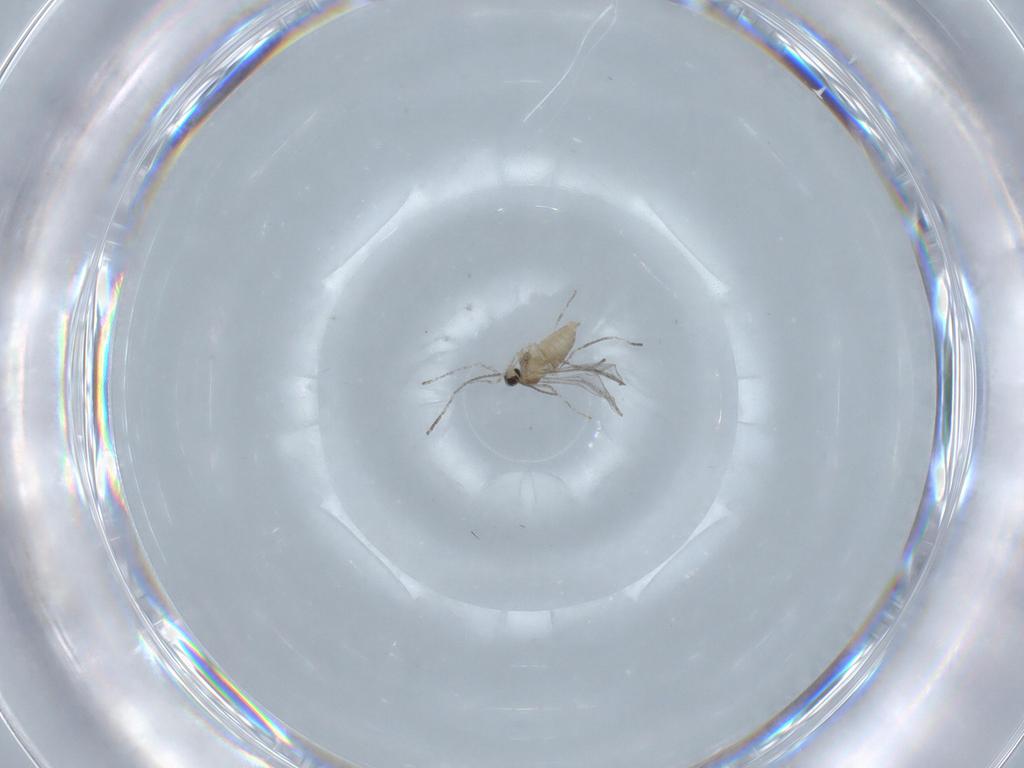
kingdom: Animalia
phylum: Arthropoda
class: Insecta
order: Diptera
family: Cecidomyiidae
